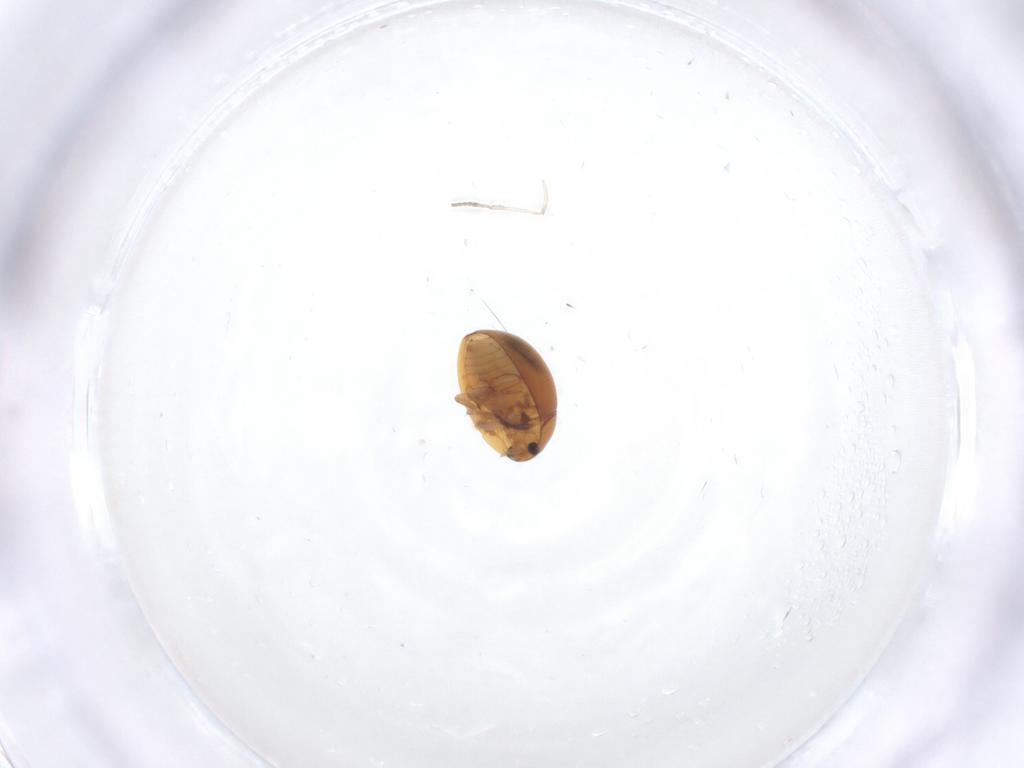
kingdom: Animalia
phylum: Arthropoda
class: Insecta
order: Coleoptera
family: Phalacridae
